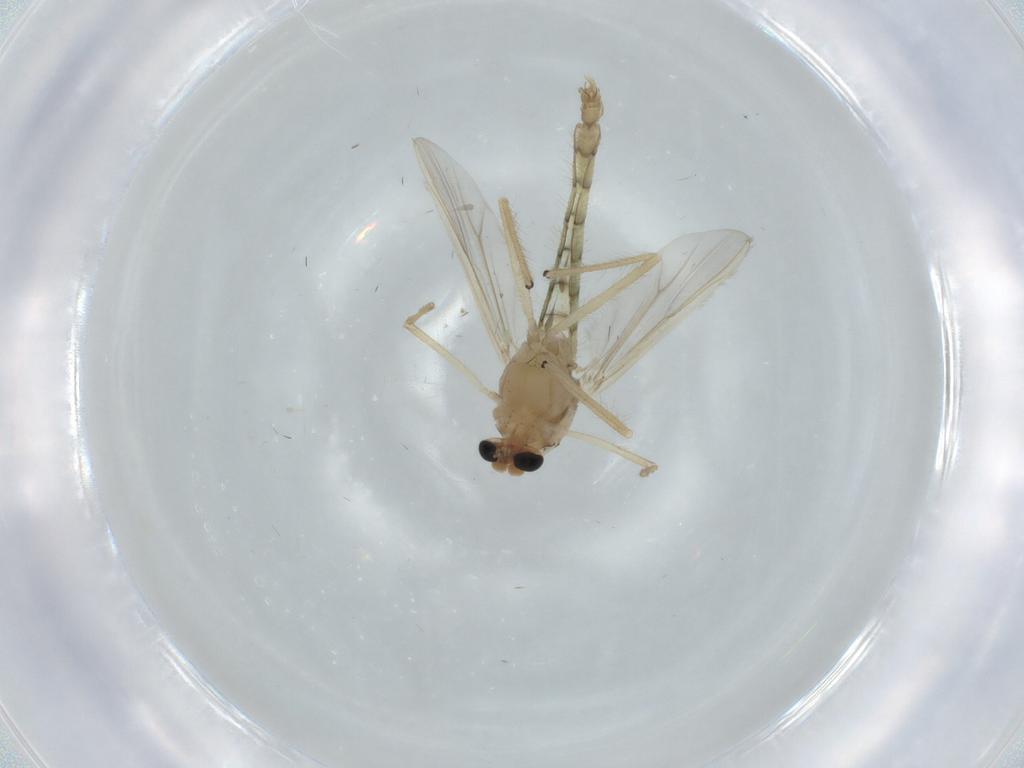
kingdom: Animalia
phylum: Arthropoda
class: Insecta
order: Diptera
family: Chironomidae
